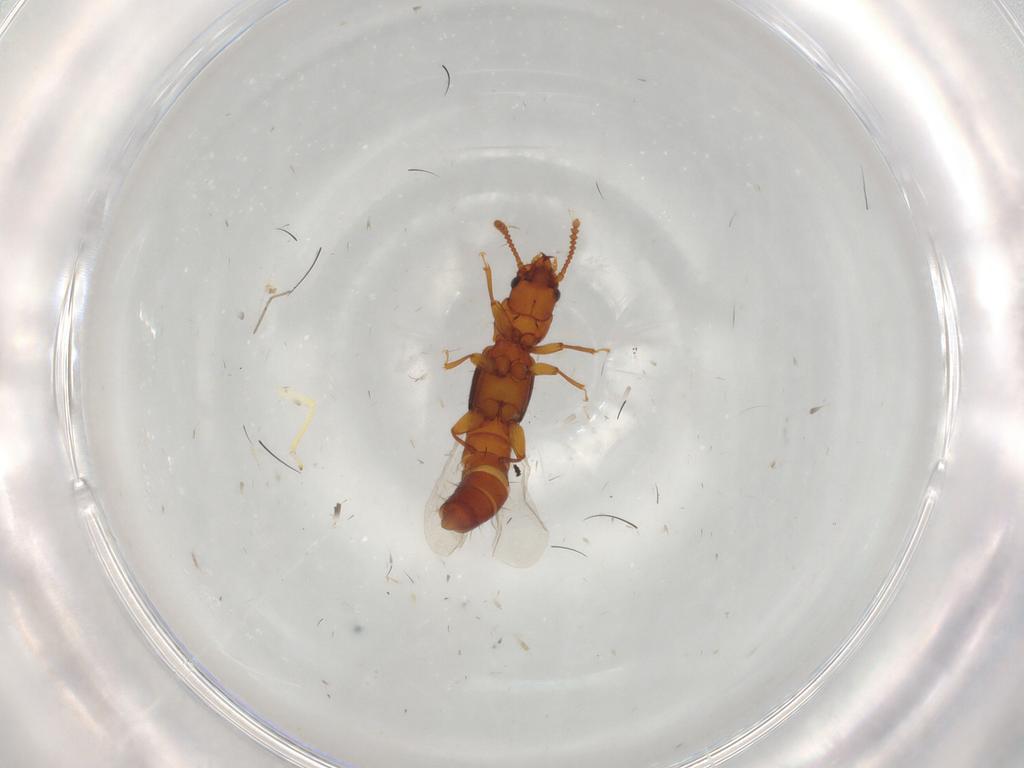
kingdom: Animalia
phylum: Arthropoda
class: Insecta
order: Coleoptera
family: Staphylinidae
